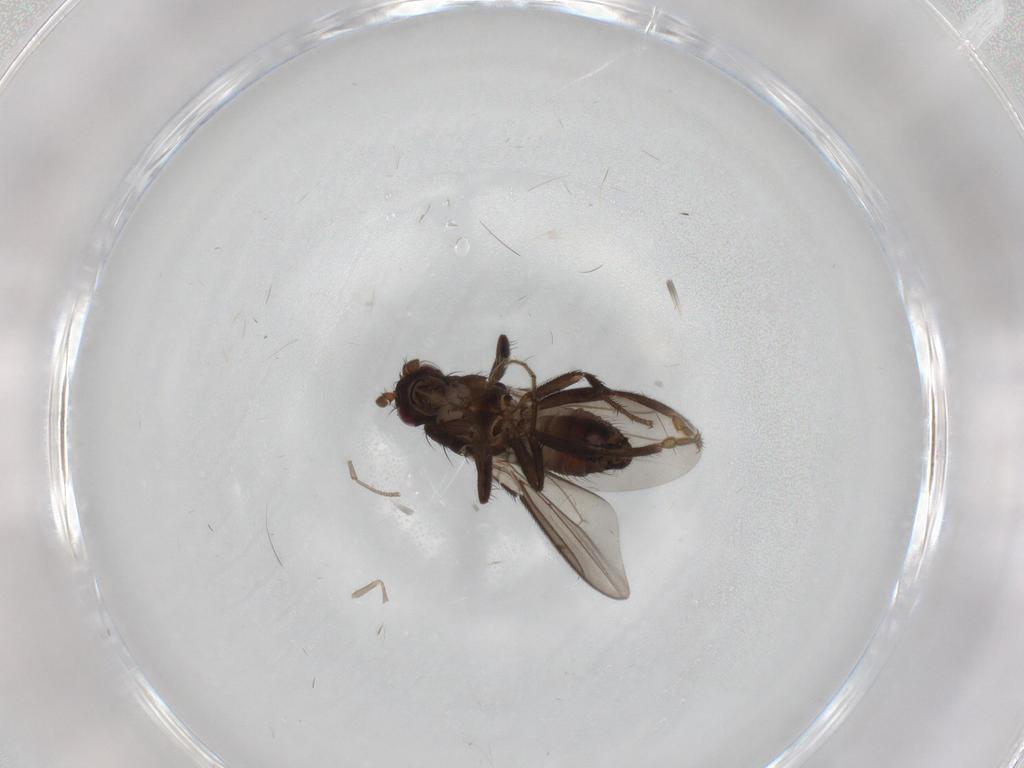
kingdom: Animalia
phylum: Arthropoda
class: Insecta
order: Diptera
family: Sphaeroceridae
